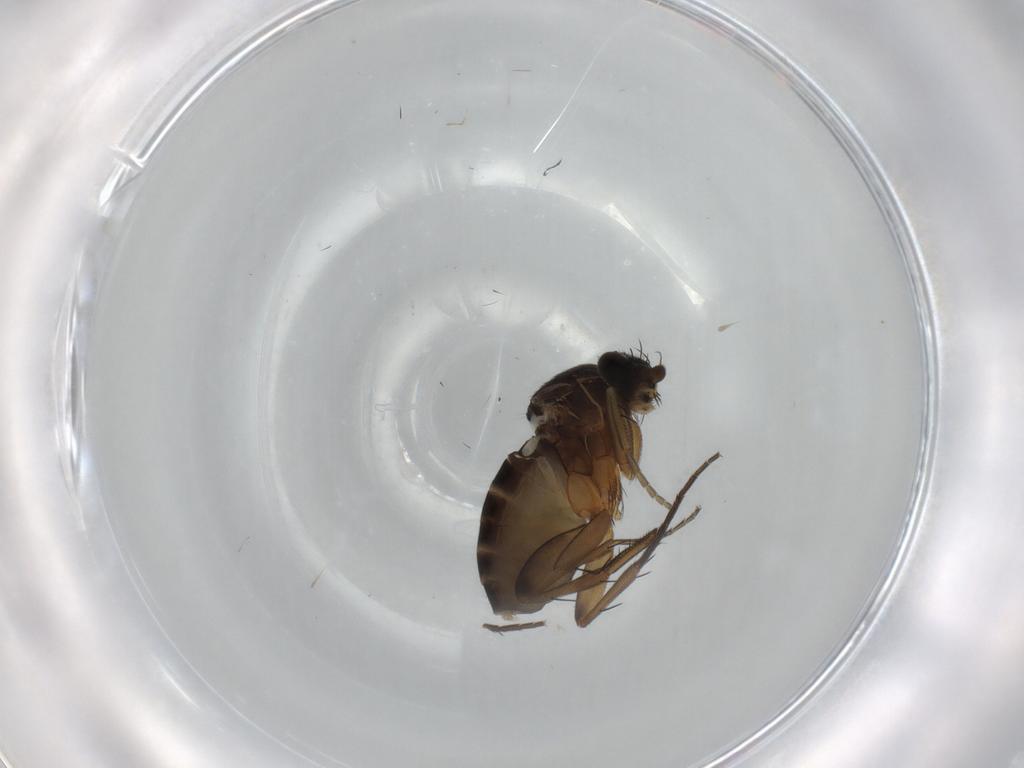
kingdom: Animalia
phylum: Arthropoda
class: Insecta
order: Diptera
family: Phoridae
